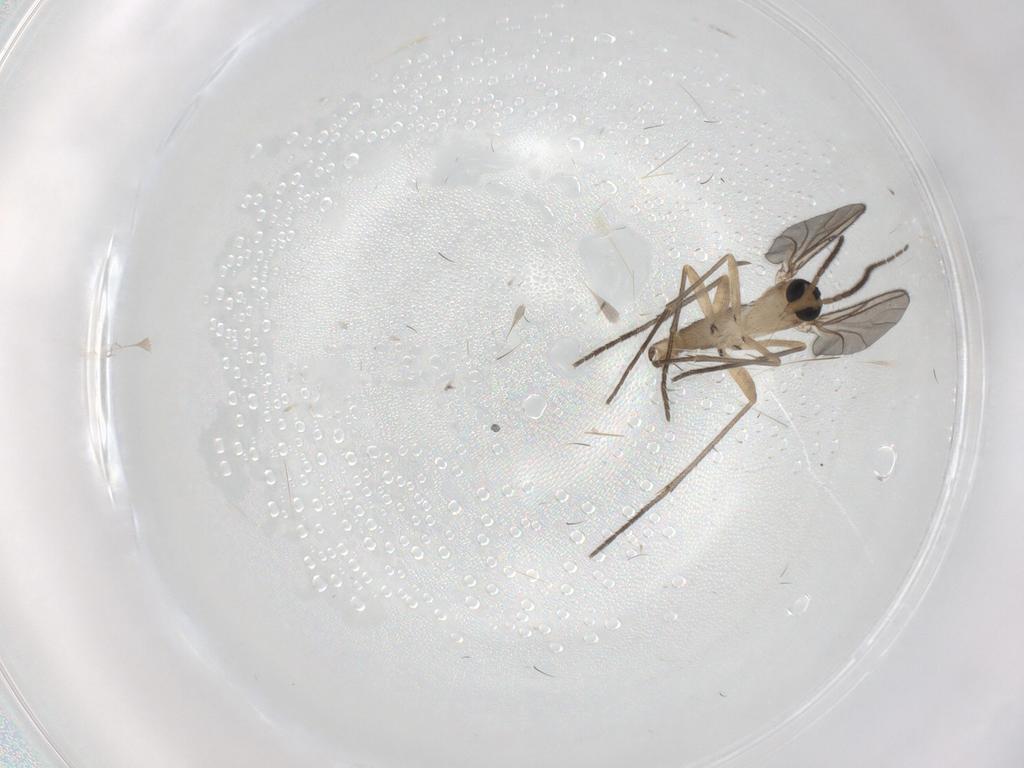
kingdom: Animalia
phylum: Arthropoda
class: Insecta
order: Diptera
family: Sciaridae
